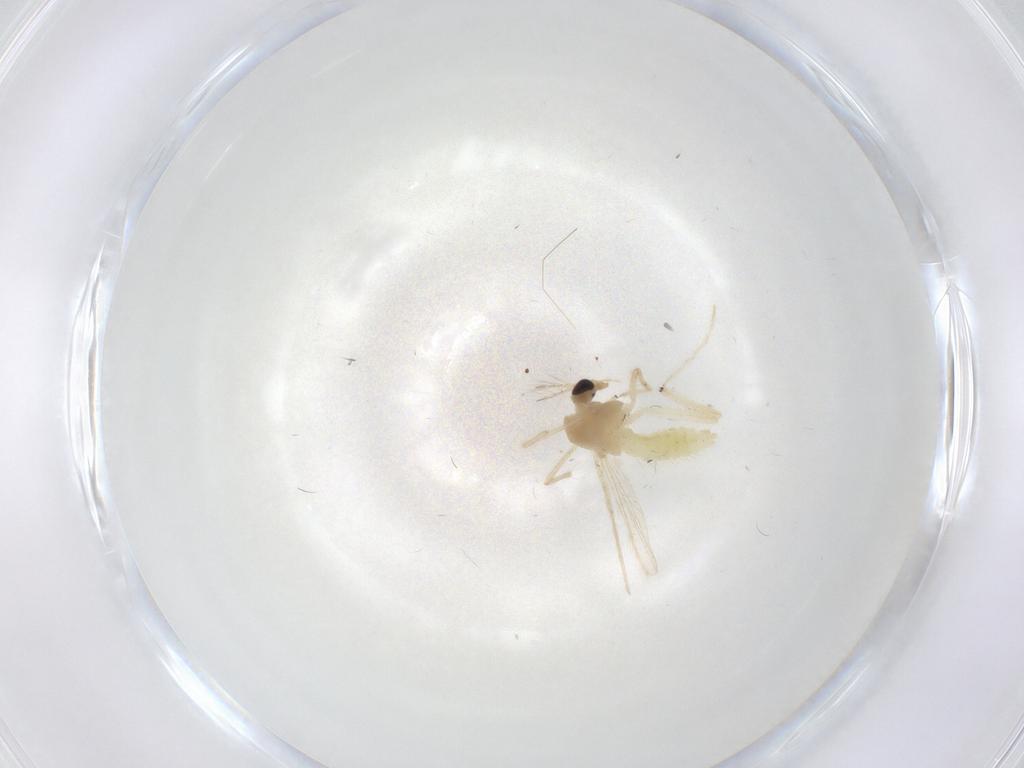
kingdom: Animalia
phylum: Arthropoda
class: Insecta
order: Diptera
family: Chironomidae
